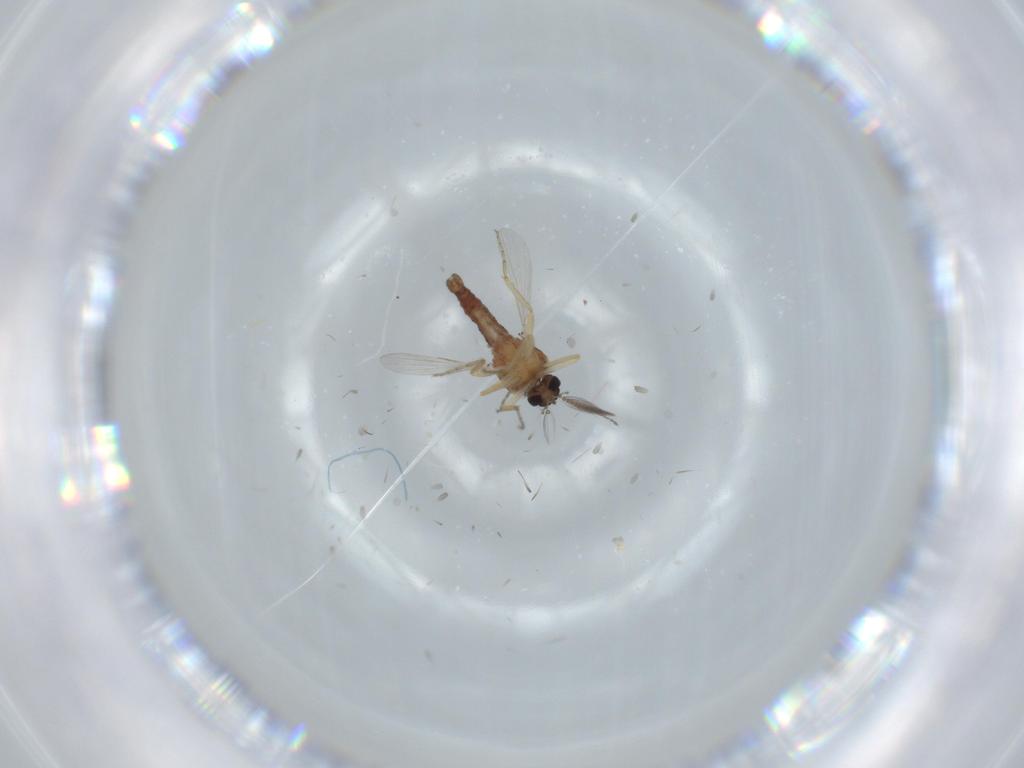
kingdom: Animalia
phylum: Arthropoda
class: Insecta
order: Diptera
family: Ceratopogonidae
